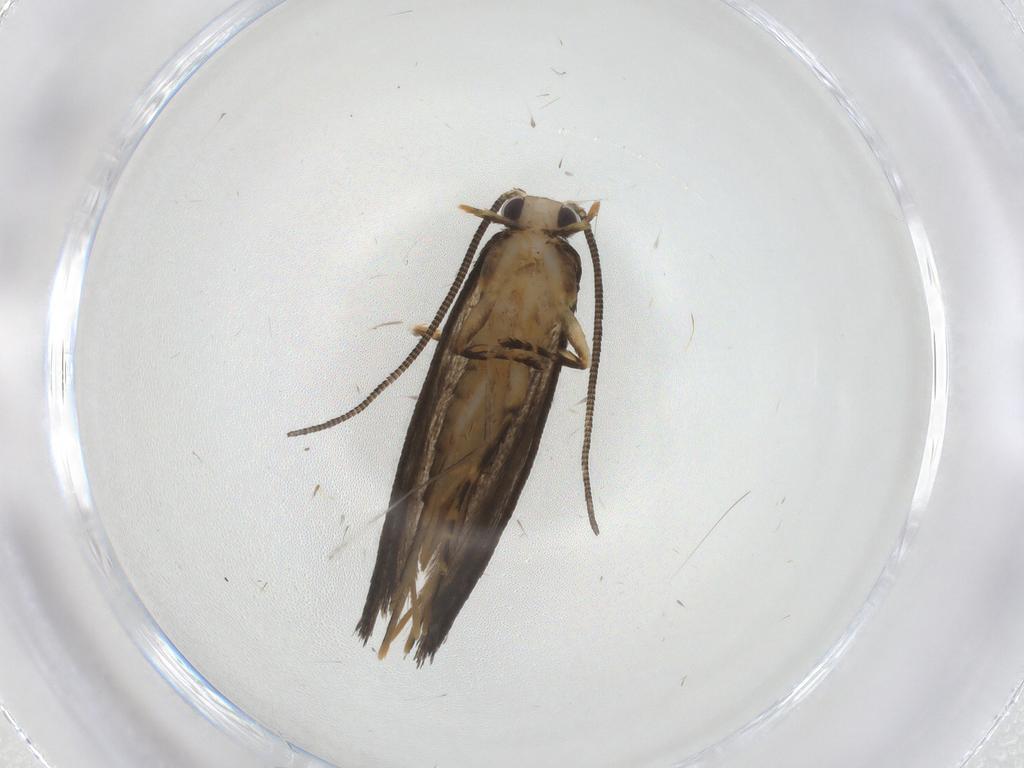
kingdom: Animalia
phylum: Arthropoda
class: Insecta
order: Lepidoptera
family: Tineidae
